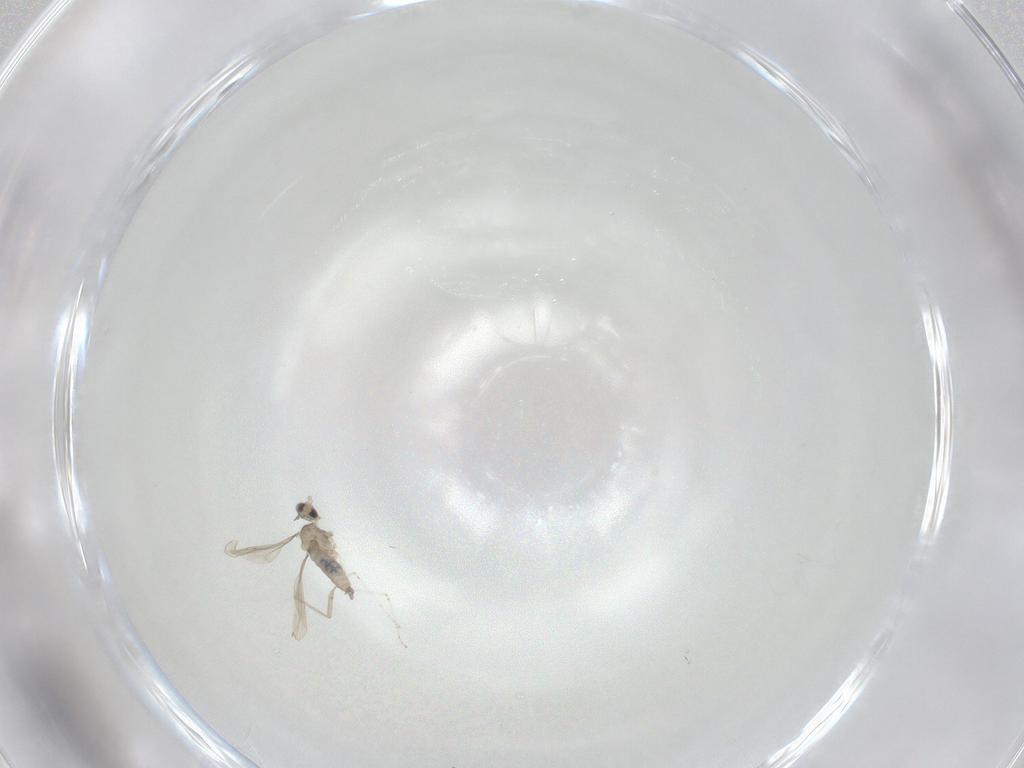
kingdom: Animalia
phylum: Arthropoda
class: Insecta
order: Diptera
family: Cecidomyiidae
